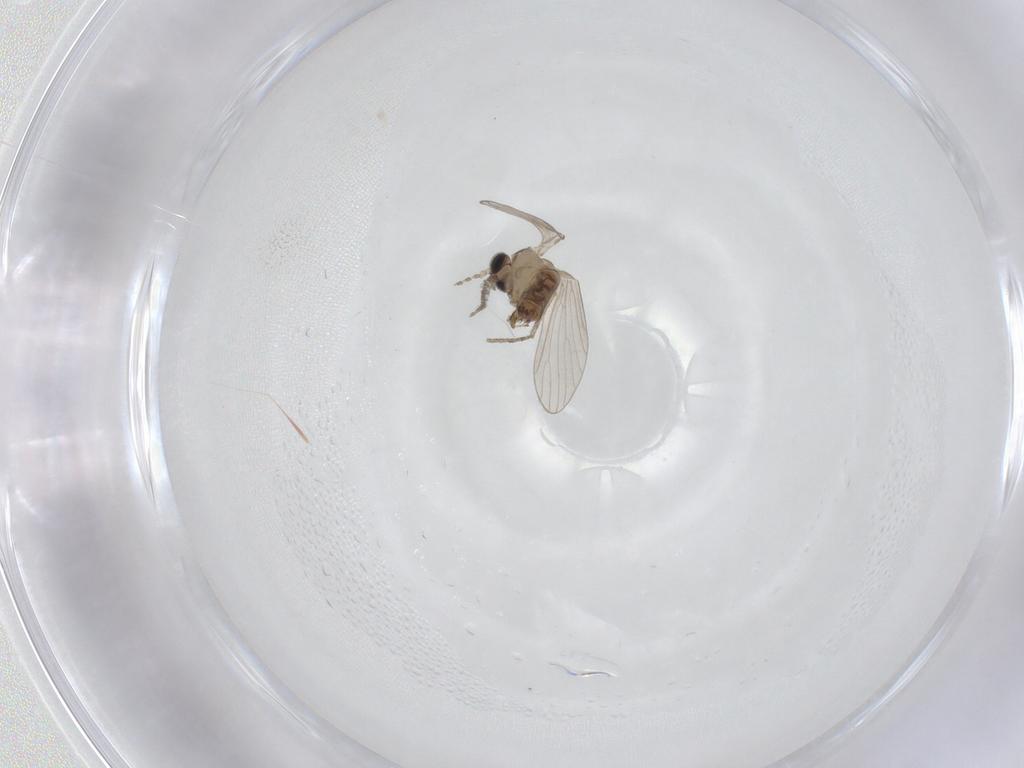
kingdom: Animalia
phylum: Arthropoda
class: Insecta
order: Diptera
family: Psychodidae
